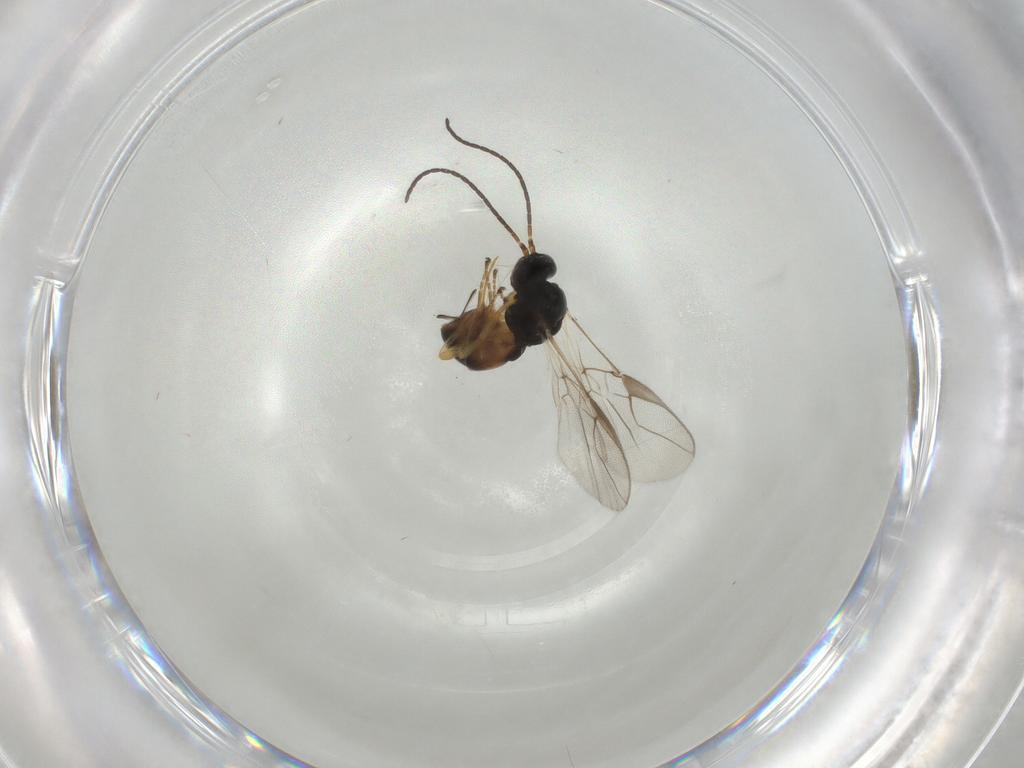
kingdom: Animalia
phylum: Arthropoda
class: Insecta
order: Hymenoptera
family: Braconidae
